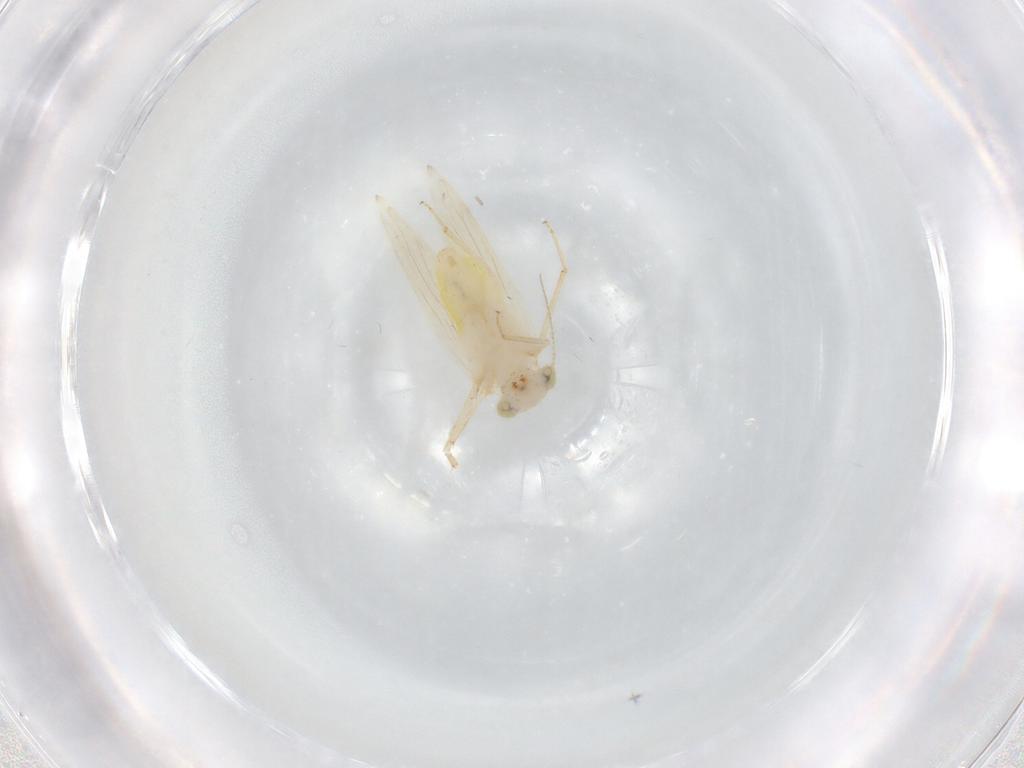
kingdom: Animalia
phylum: Arthropoda
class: Insecta
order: Psocodea
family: Lepidopsocidae
